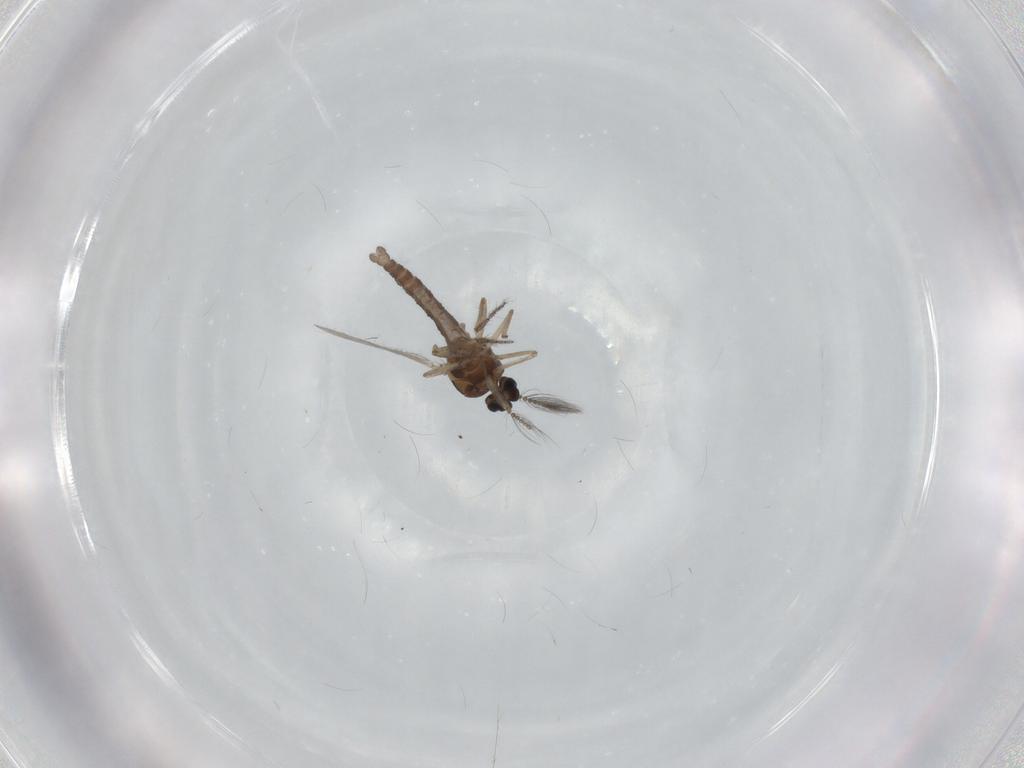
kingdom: Animalia
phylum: Arthropoda
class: Insecta
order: Diptera
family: Ceratopogonidae
